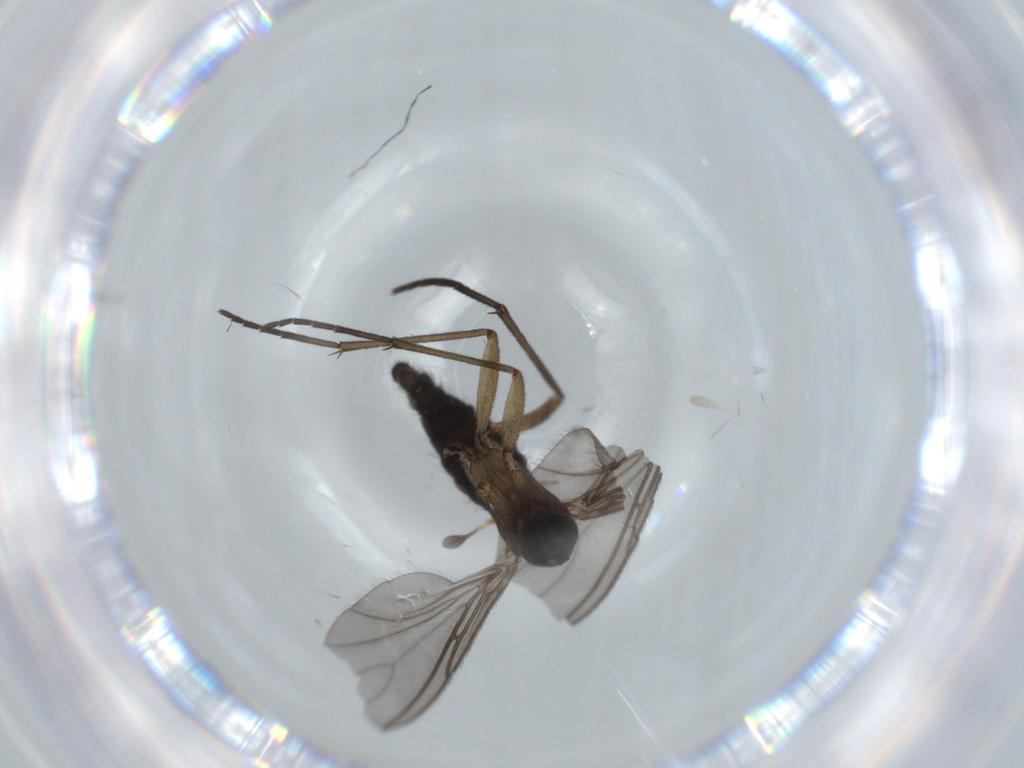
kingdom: Animalia
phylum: Arthropoda
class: Insecta
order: Diptera
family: Sciaridae
